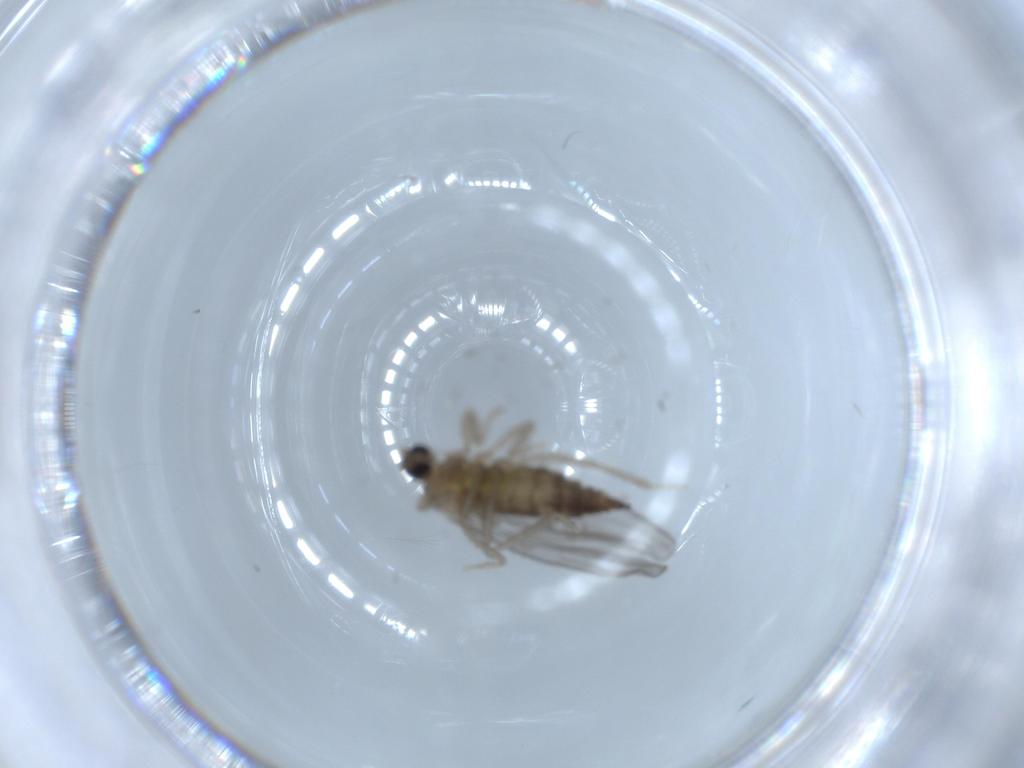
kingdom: Animalia
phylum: Arthropoda
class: Insecta
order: Diptera
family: Cecidomyiidae
